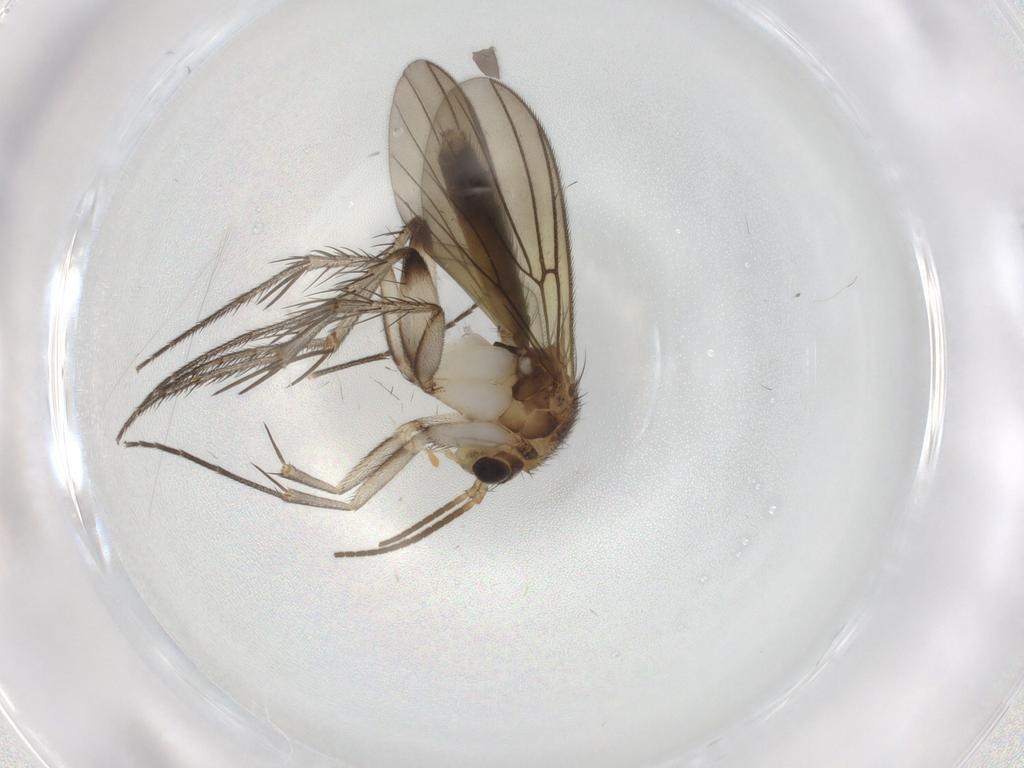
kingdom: Animalia
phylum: Arthropoda
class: Insecta
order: Diptera
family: Mycetophilidae
